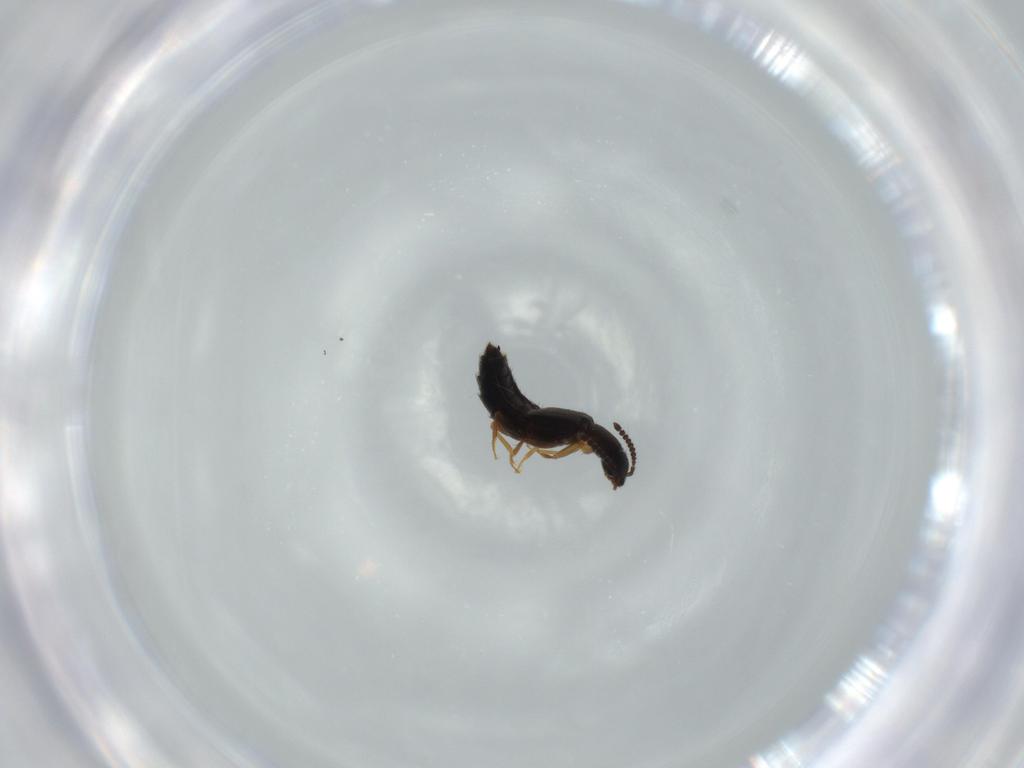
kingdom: Animalia
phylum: Arthropoda
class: Insecta
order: Coleoptera
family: Staphylinidae
